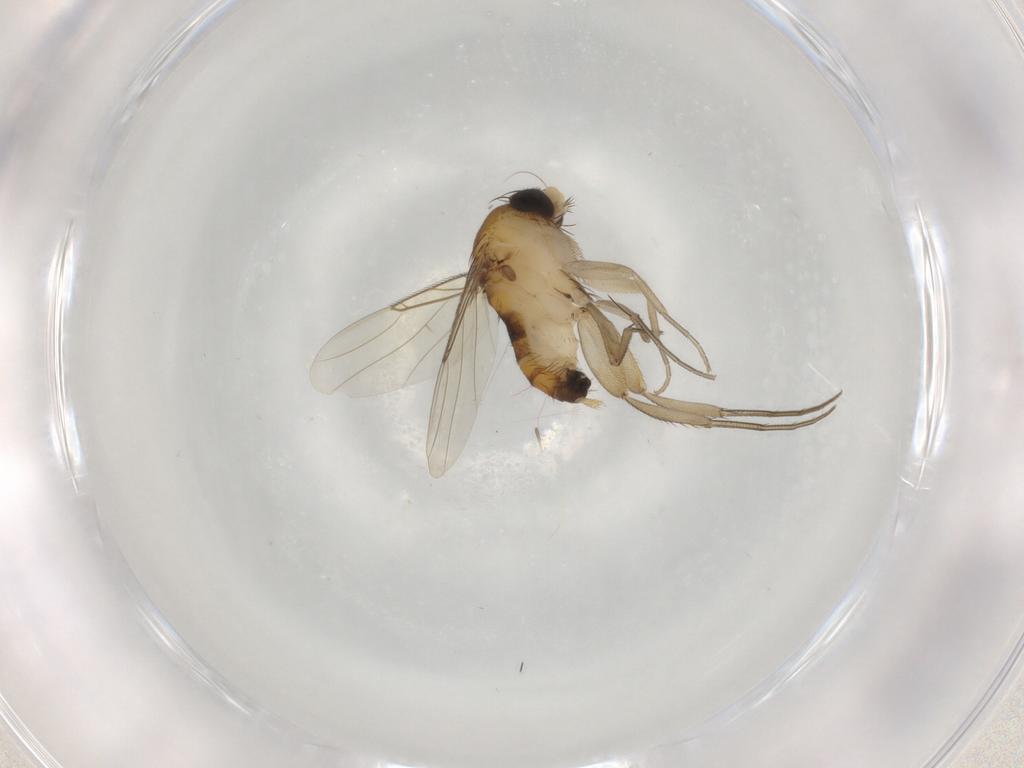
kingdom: Animalia
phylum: Arthropoda
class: Insecta
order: Diptera
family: Phoridae
